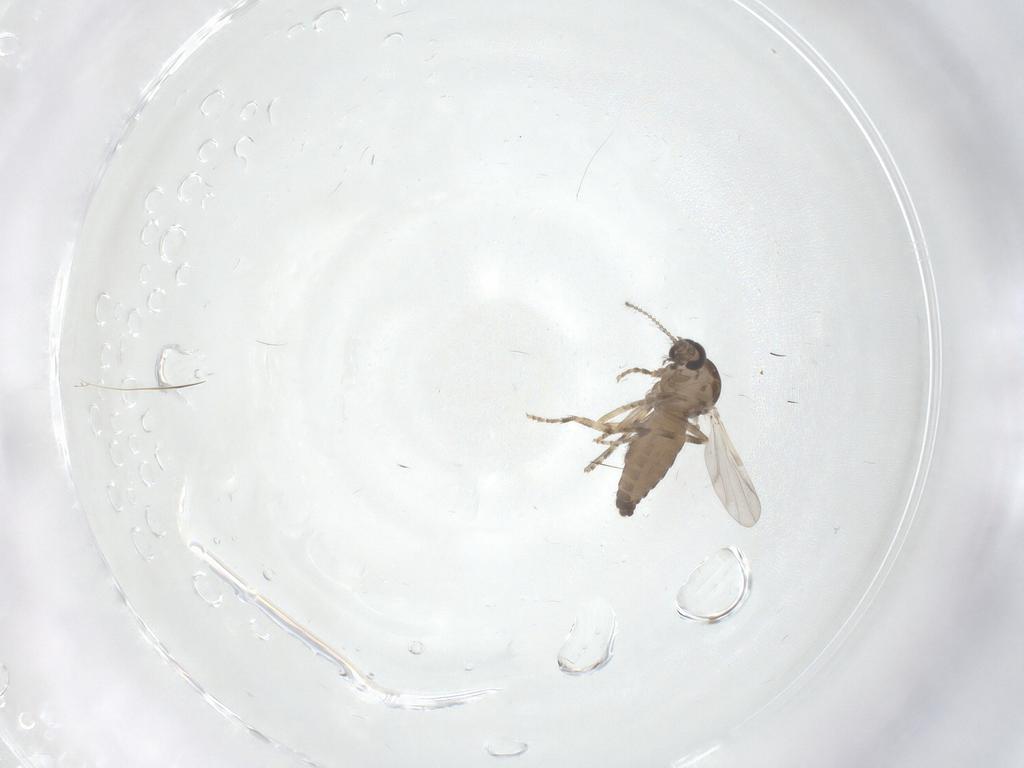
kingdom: Animalia
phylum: Arthropoda
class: Insecta
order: Diptera
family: Ceratopogonidae
